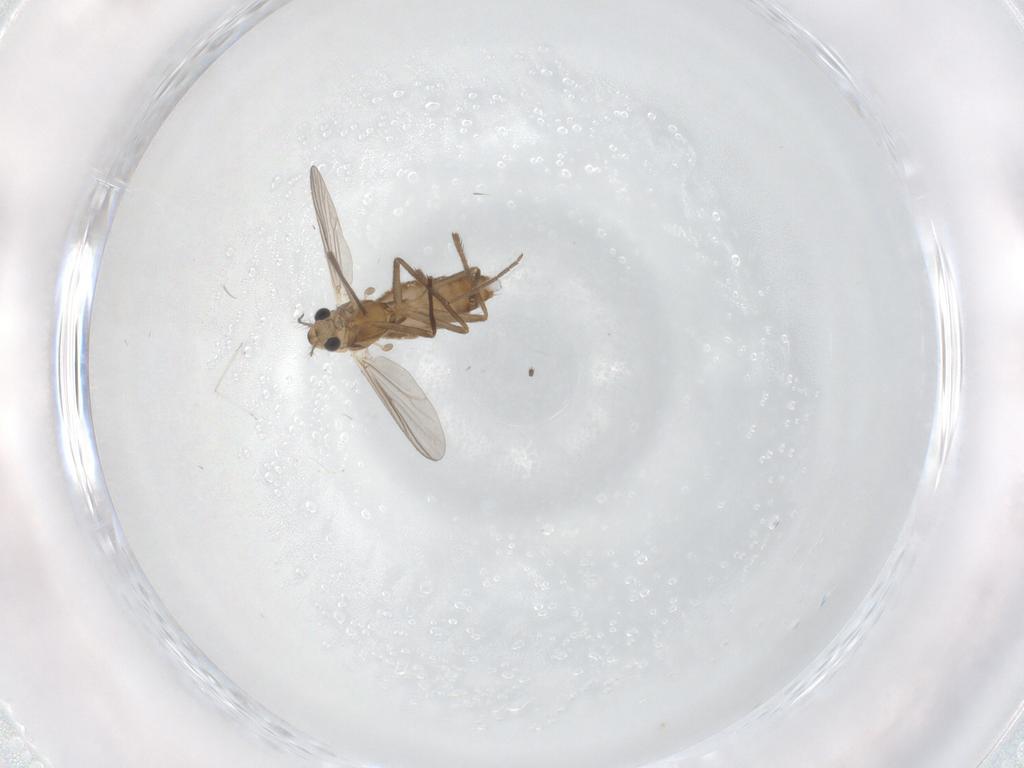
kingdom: Animalia
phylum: Arthropoda
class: Insecta
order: Diptera
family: Chironomidae
